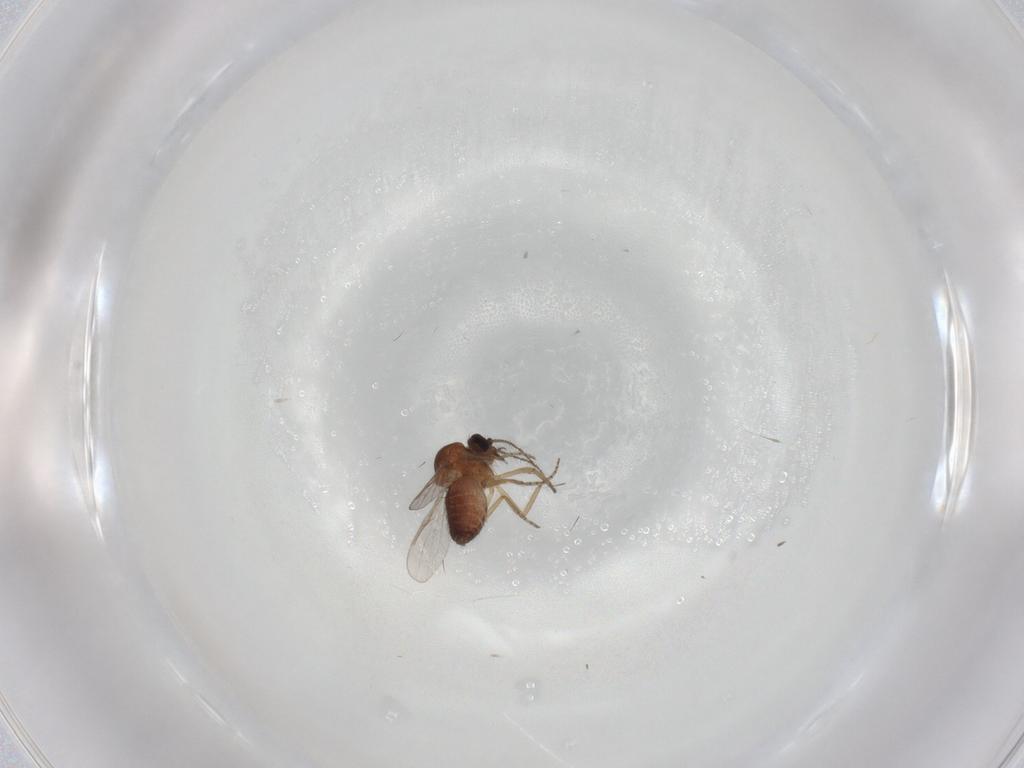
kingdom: Animalia
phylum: Arthropoda
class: Insecta
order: Diptera
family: Ceratopogonidae
